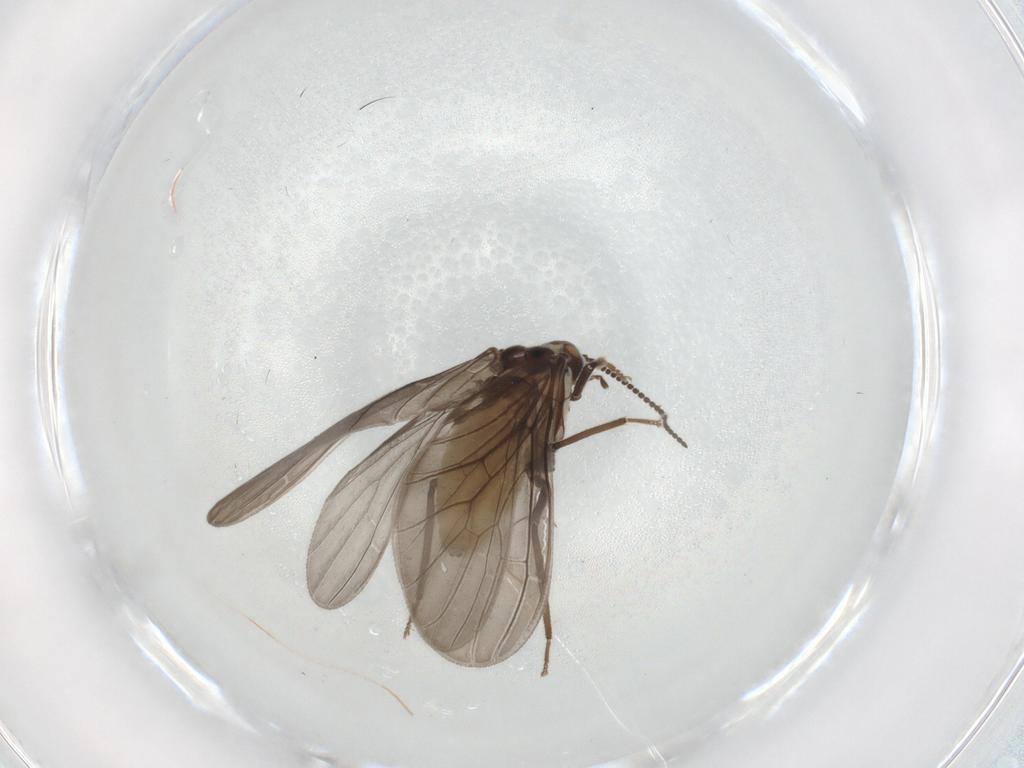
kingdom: Animalia
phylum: Arthropoda
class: Insecta
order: Neuroptera
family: Coniopterygidae
